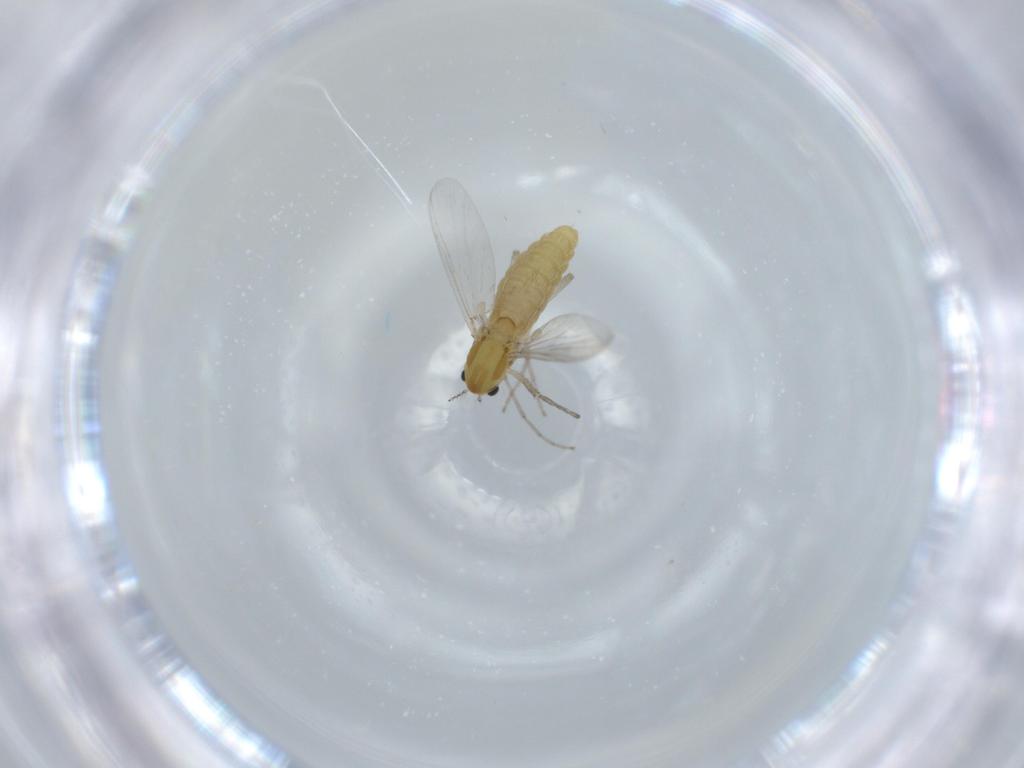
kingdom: Animalia
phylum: Arthropoda
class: Insecta
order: Diptera
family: Chironomidae
